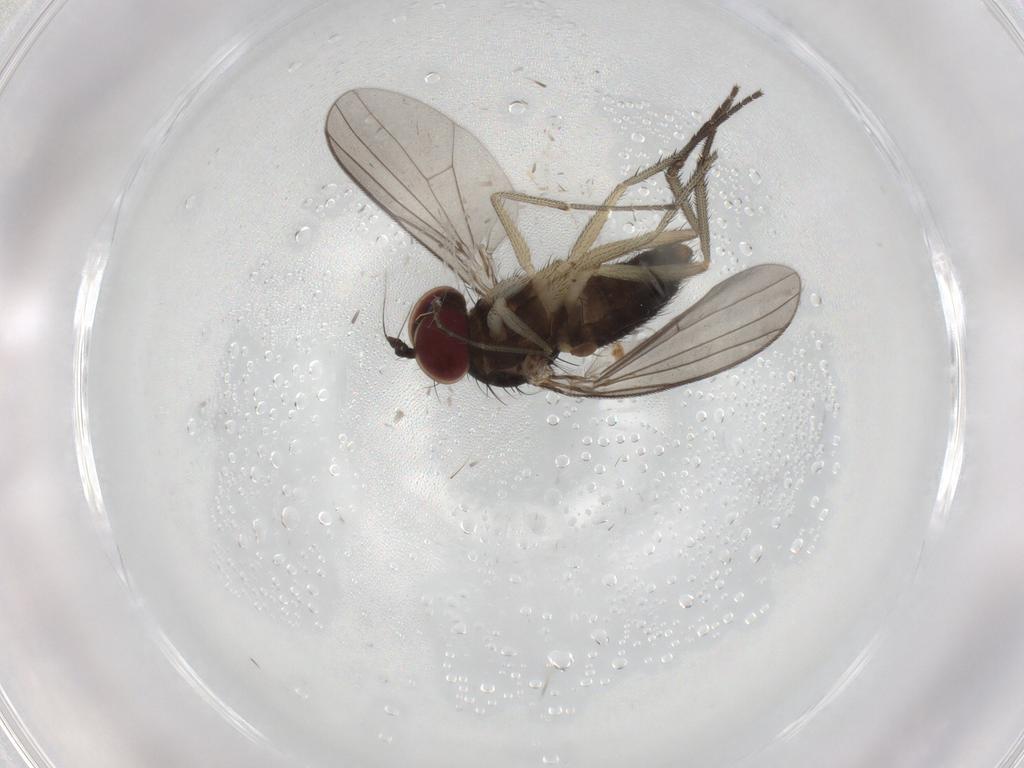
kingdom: Animalia
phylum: Arthropoda
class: Insecta
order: Diptera
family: Dolichopodidae
